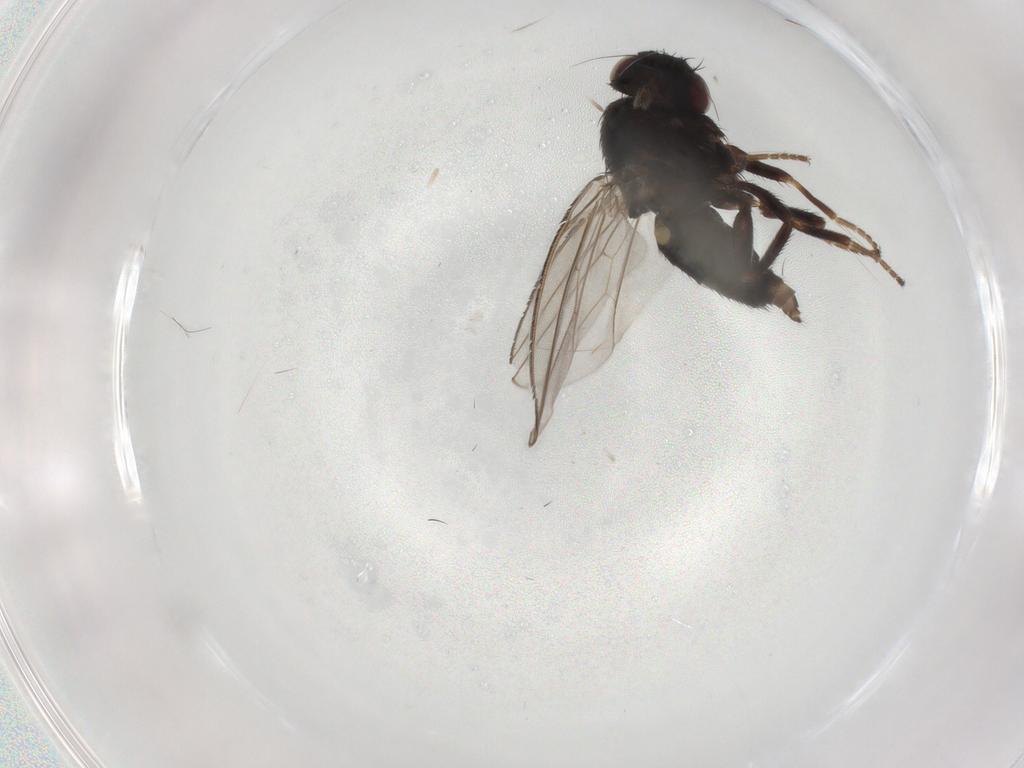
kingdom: Animalia
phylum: Arthropoda
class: Insecta
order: Diptera
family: Milichiidae
